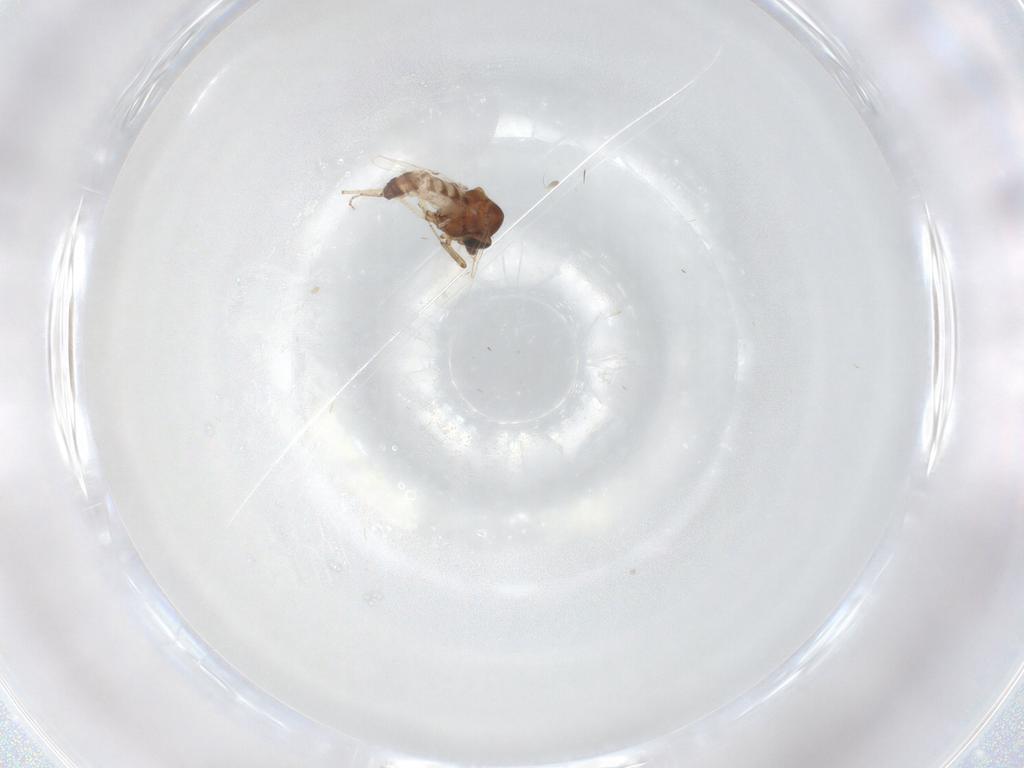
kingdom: Animalia
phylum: Arthropoda
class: Insecta
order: Diptera
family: Ceratopogonidae
